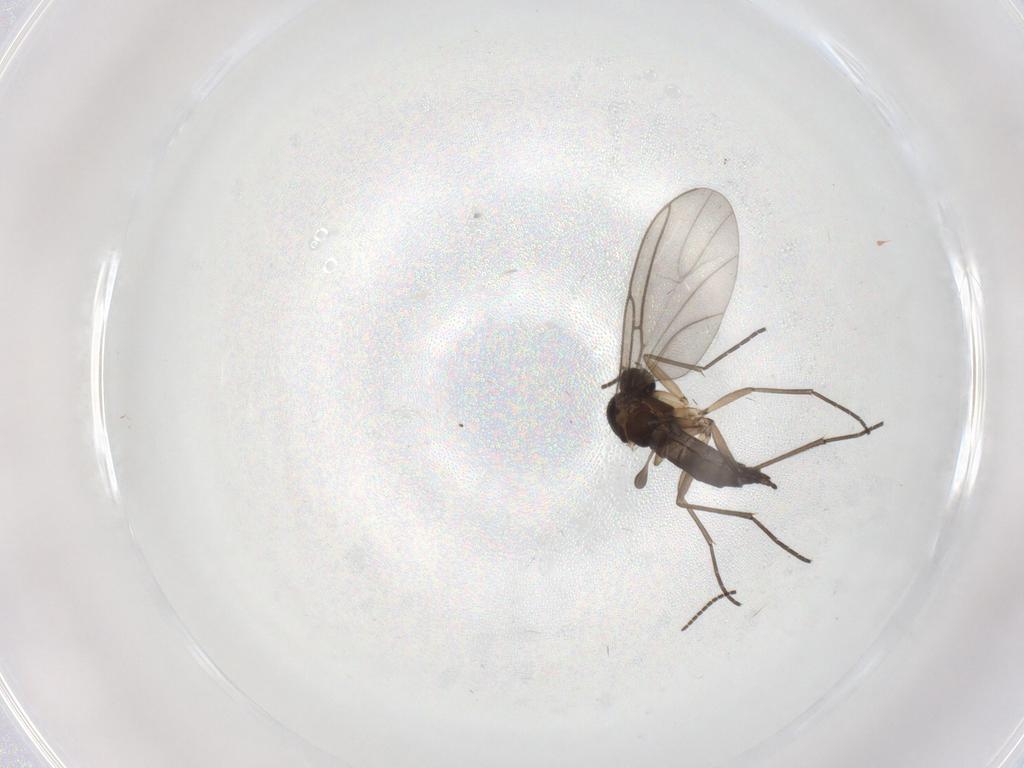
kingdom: Animalia
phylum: Arthropoda
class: Insecta
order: Diptera
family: Sciaridae
